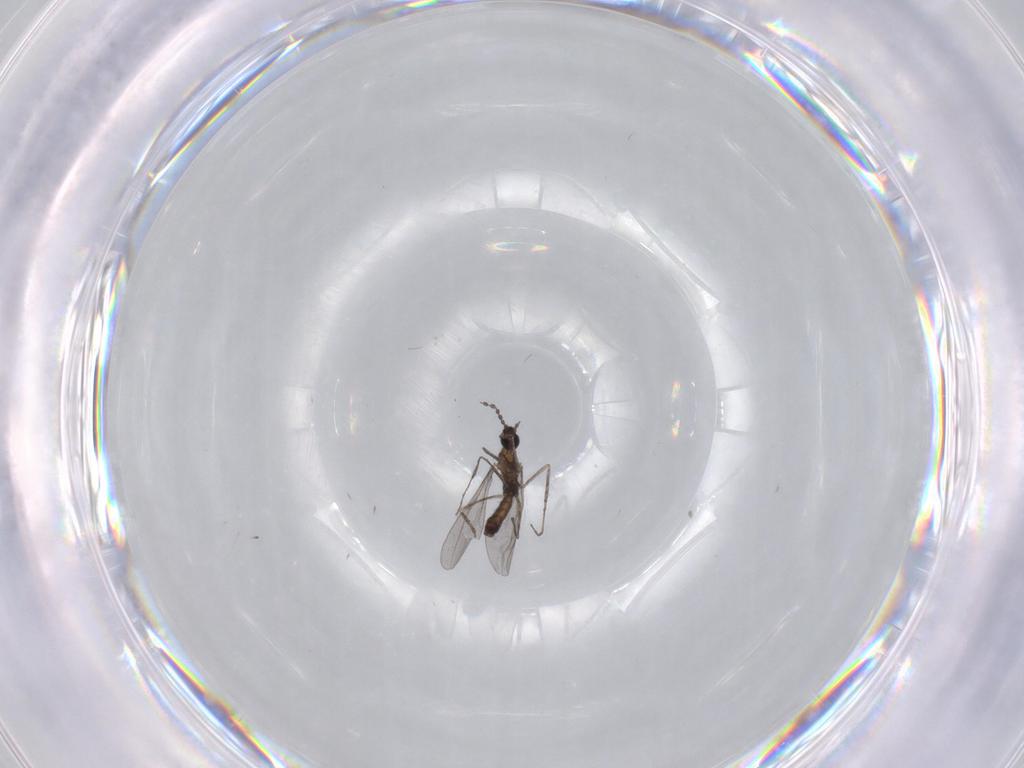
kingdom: Animalia
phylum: Arthropoda
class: Insecta
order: Diptera
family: Cecidomyiidae
